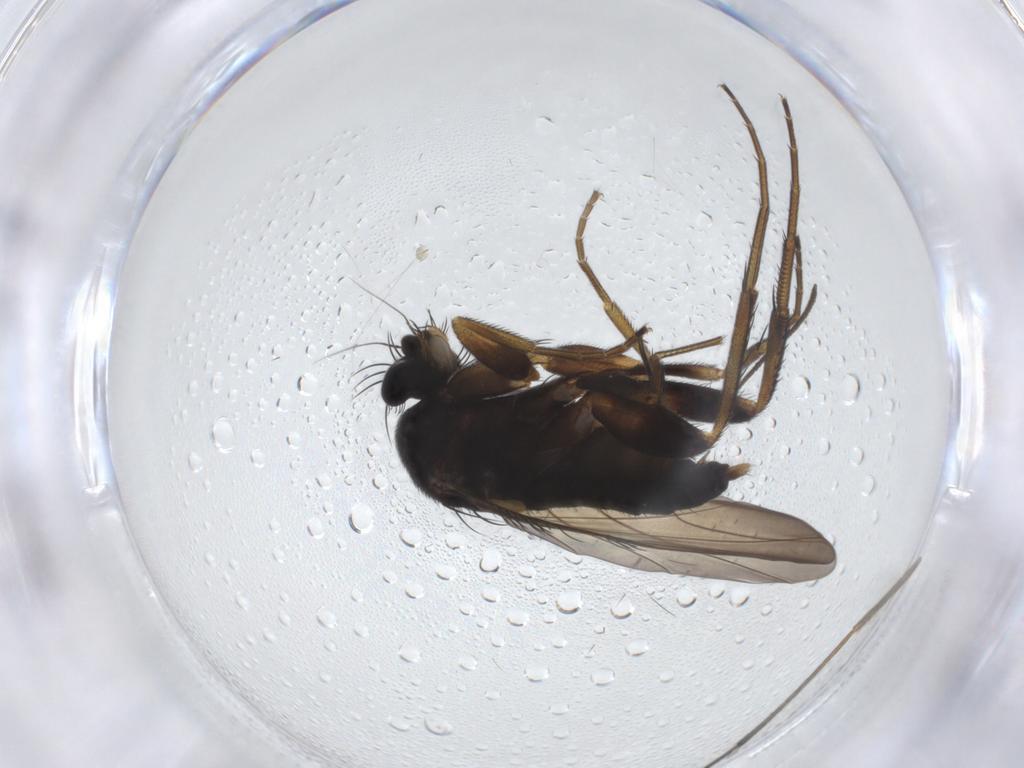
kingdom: Animalia
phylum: Arthropoda
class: Insecta
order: Diptera
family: Phoridae
